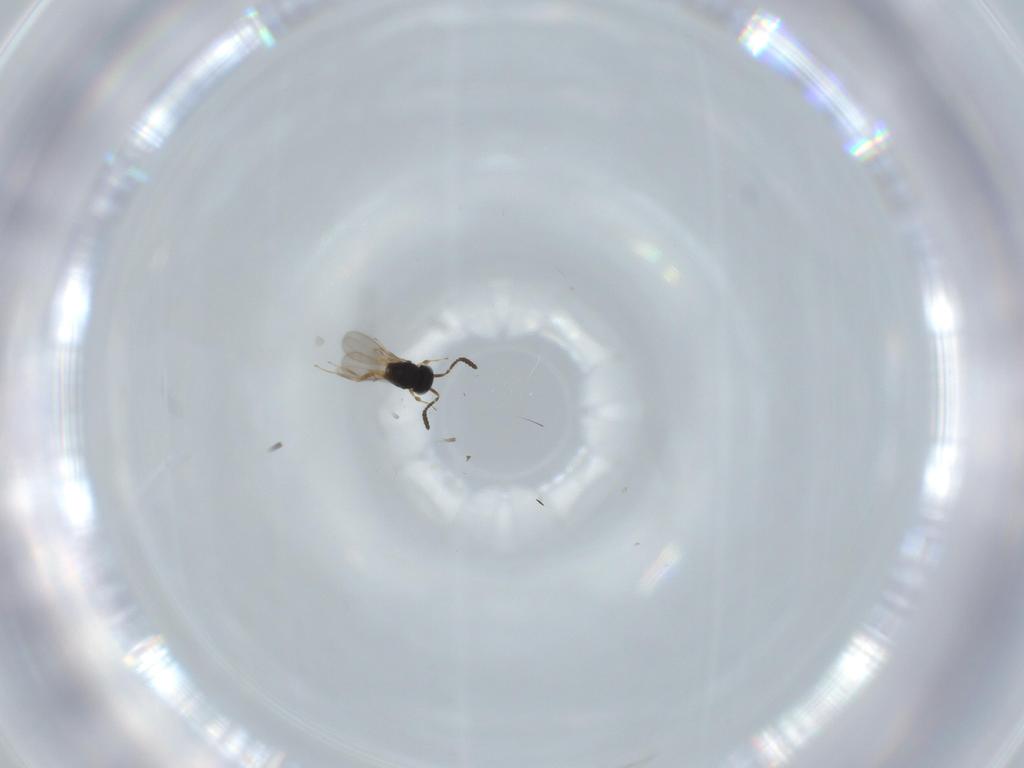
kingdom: Animalia
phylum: Arthropoda
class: Insecta
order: Hymenoptera
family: Scelionidae
